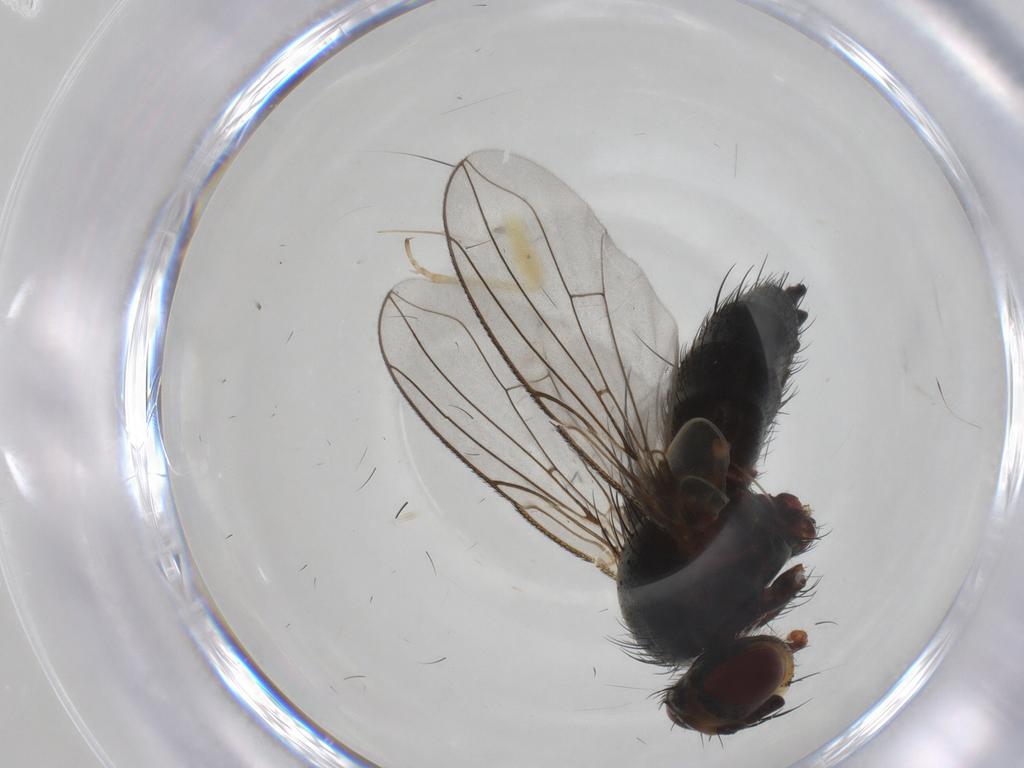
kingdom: Animalia
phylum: Arthropoda
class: Insecta
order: Diptera
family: Tachinidae
